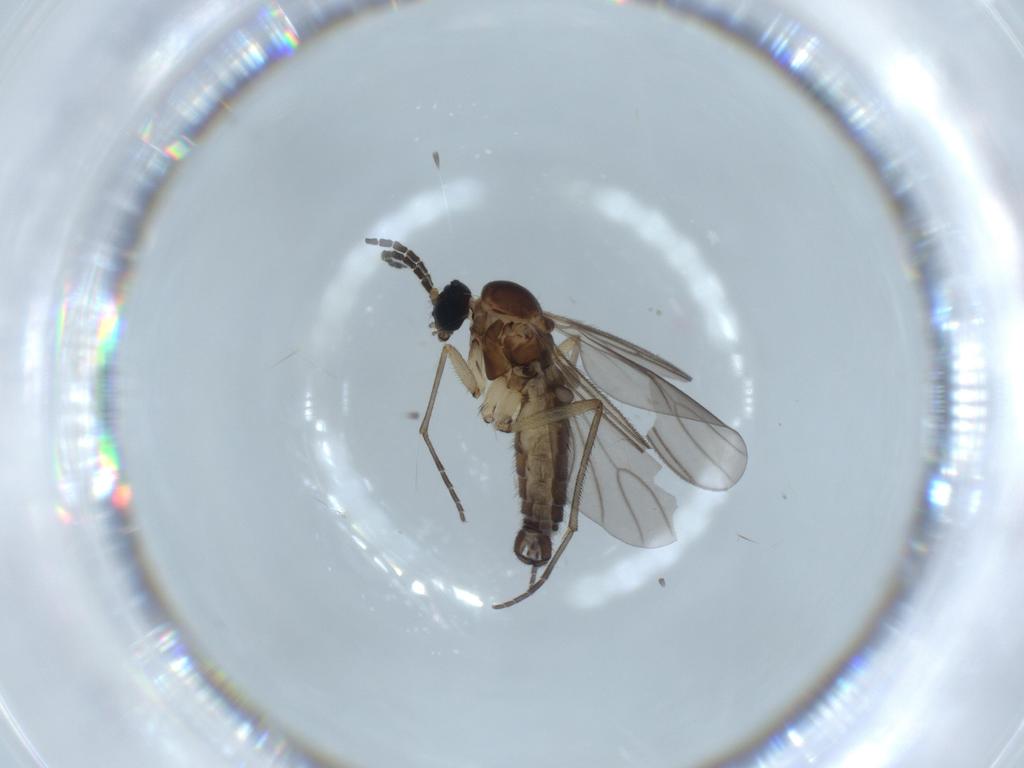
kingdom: Animalia
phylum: Arthropoda
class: Insecta
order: Diptera
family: Sciaridae
